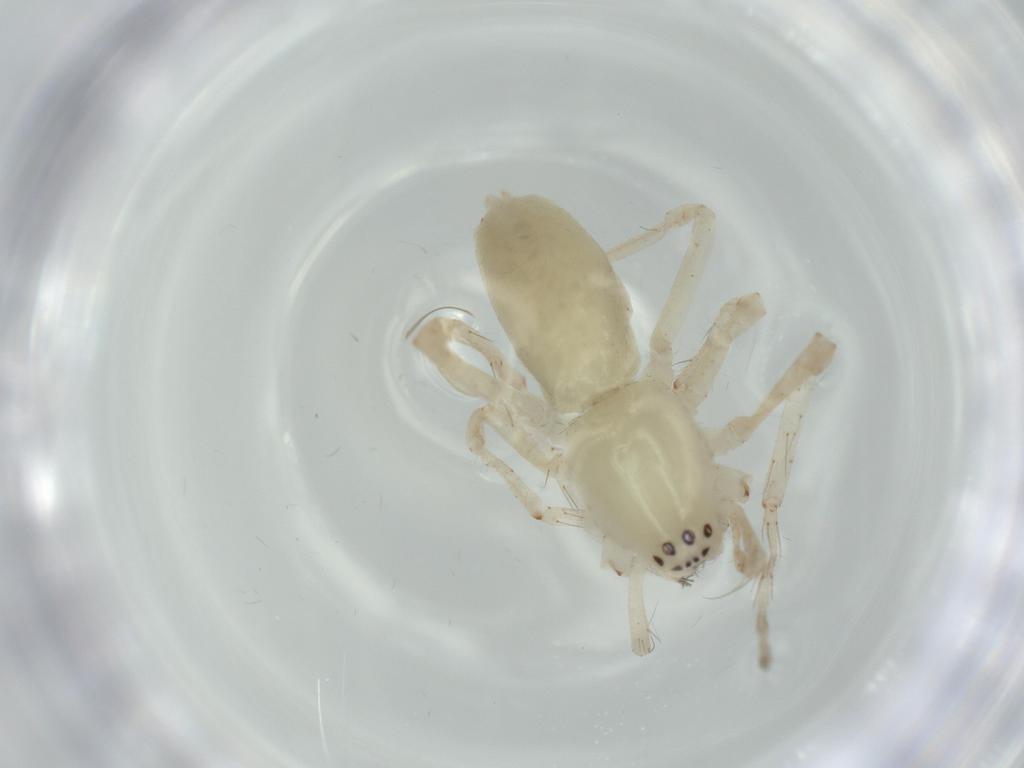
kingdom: Animalia
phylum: Arthropoda
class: Arachnida
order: Araneae
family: Anyphaenidae
